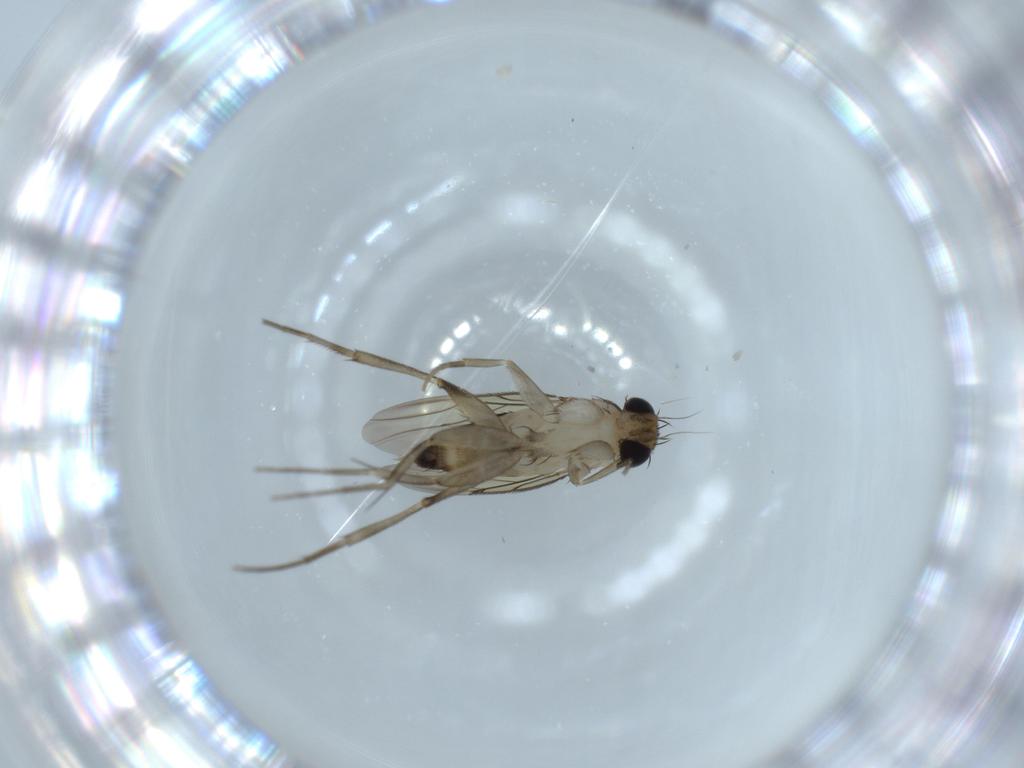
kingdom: Animalia
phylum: Arthropoda
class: Insecta
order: Diptera
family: Phoridae
